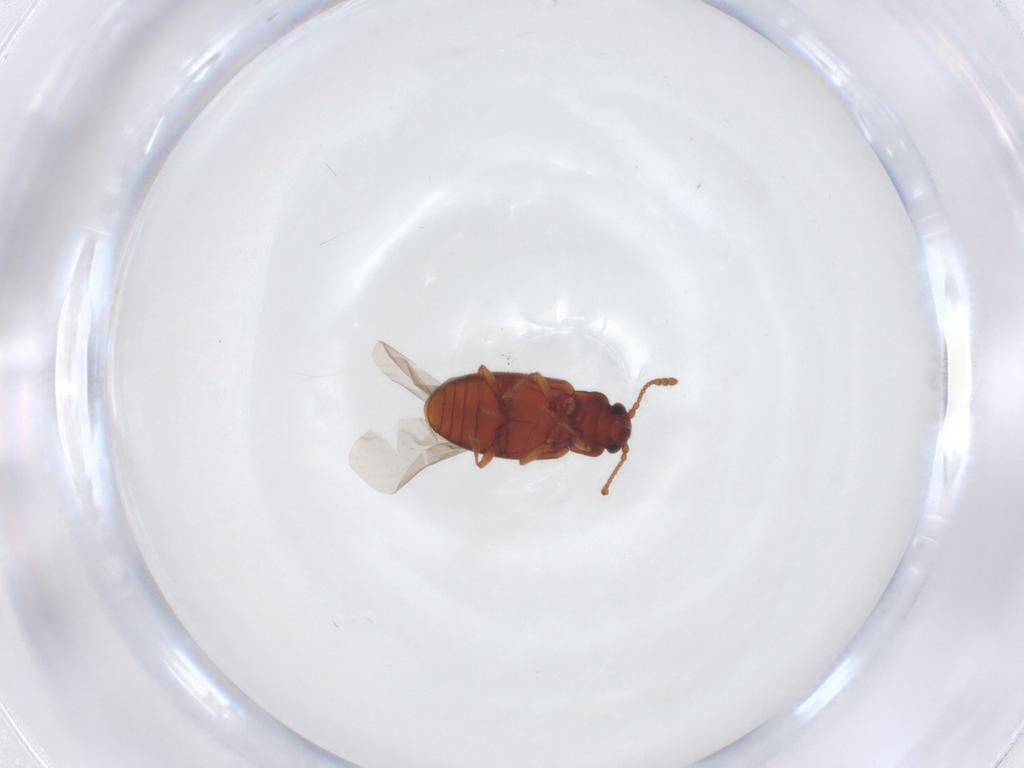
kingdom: Animalia
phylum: Arthropoda
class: Insecta
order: Coleoptera
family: Cryptophagidae
